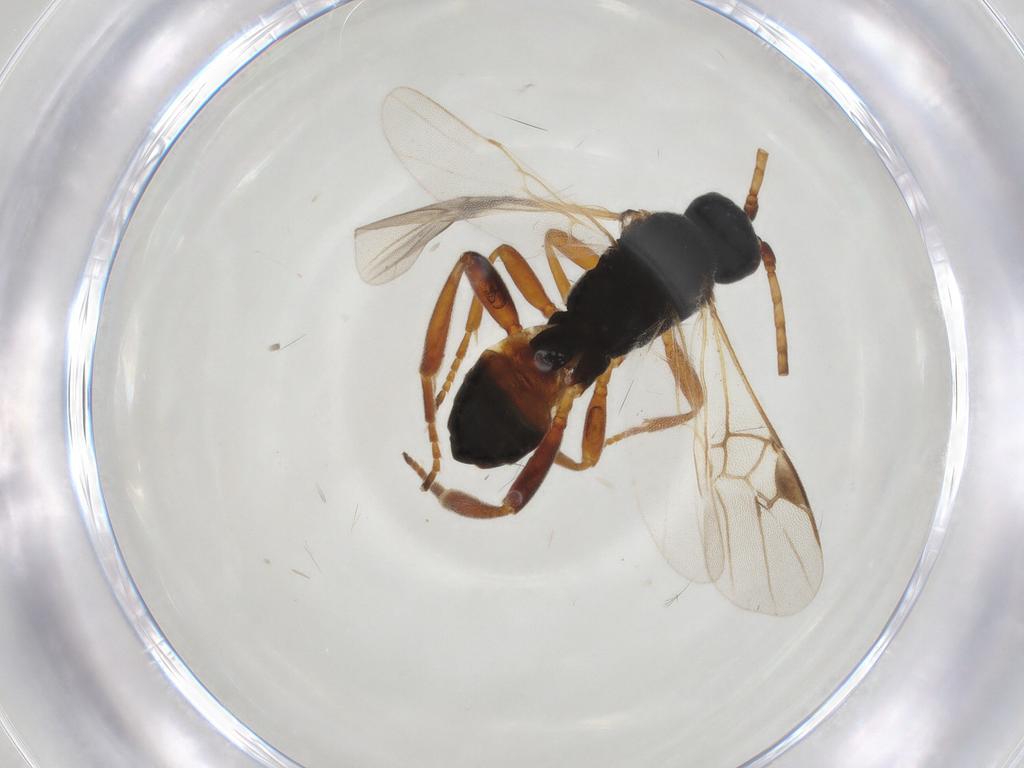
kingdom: Animalia
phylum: Arthropoda
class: Insecta
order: Hymenoptera
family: Braconidae
